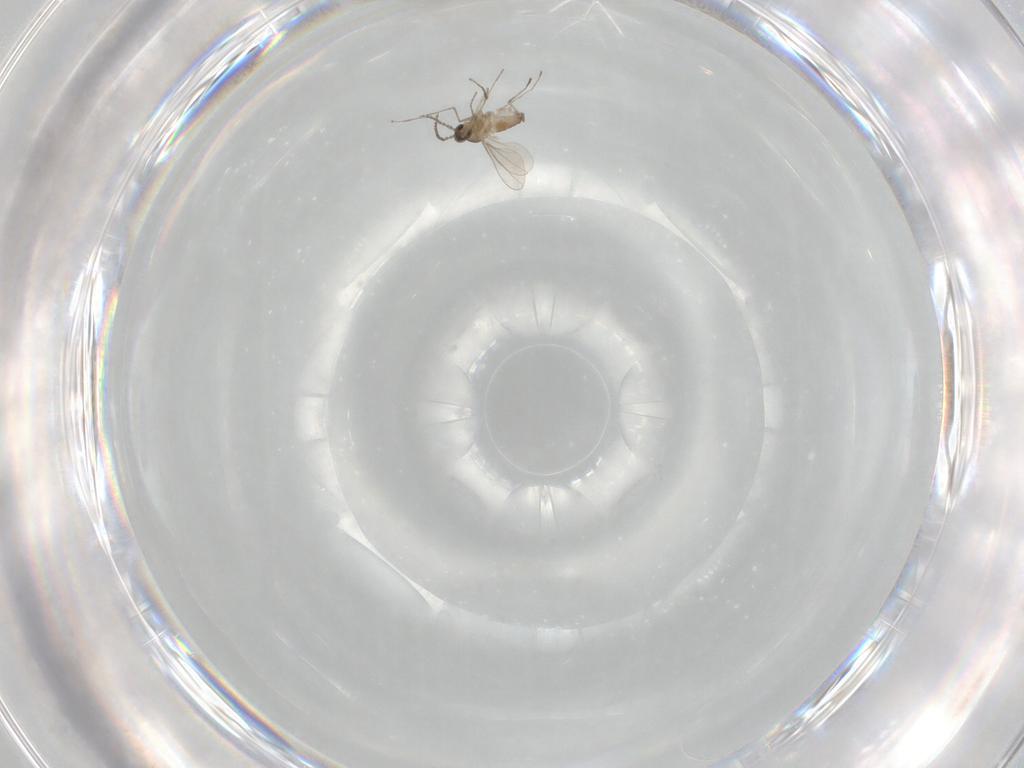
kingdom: Animalia
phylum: Arthropoda
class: Insecta
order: Diptera
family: Cecidomyiidae
